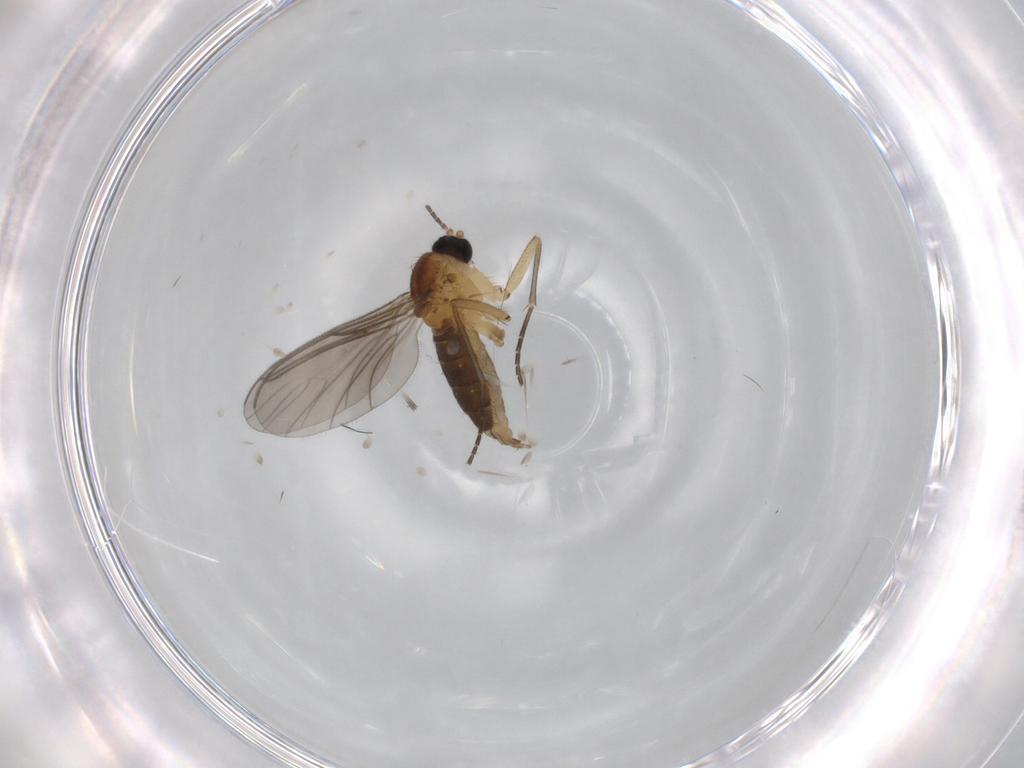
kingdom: Animalia
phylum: Arthropoda
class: Insecta
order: Diptera
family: Sciaridae
